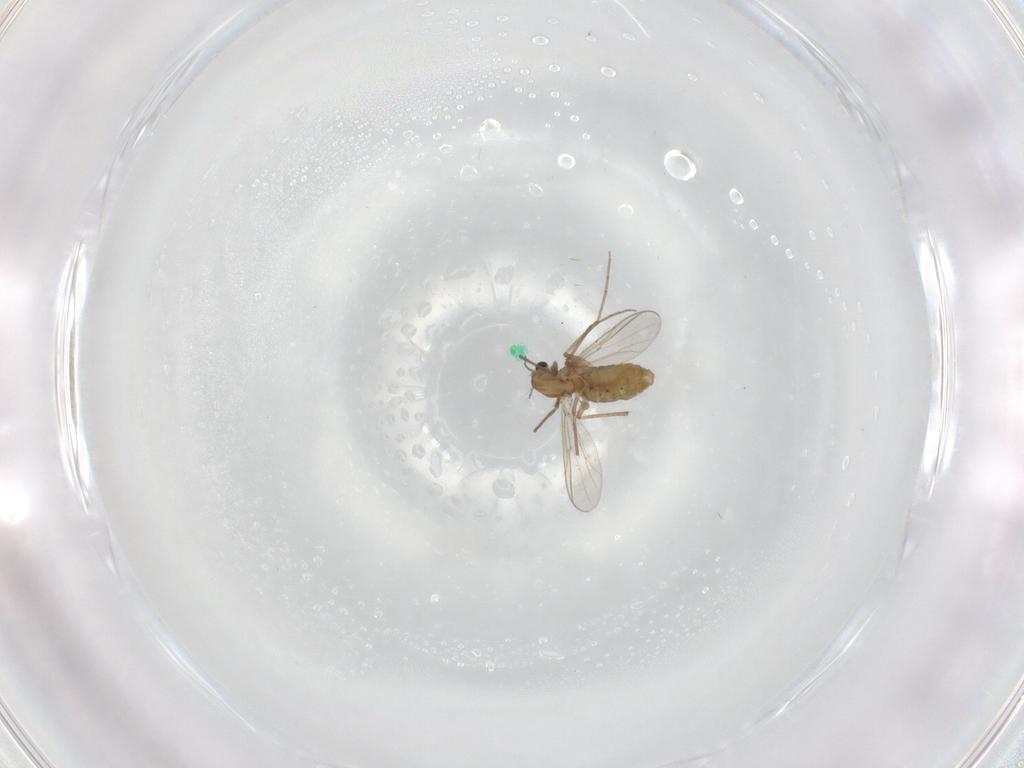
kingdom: Animalia
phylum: Arthropoda
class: Insecta
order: Diptera
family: Chironomidae
